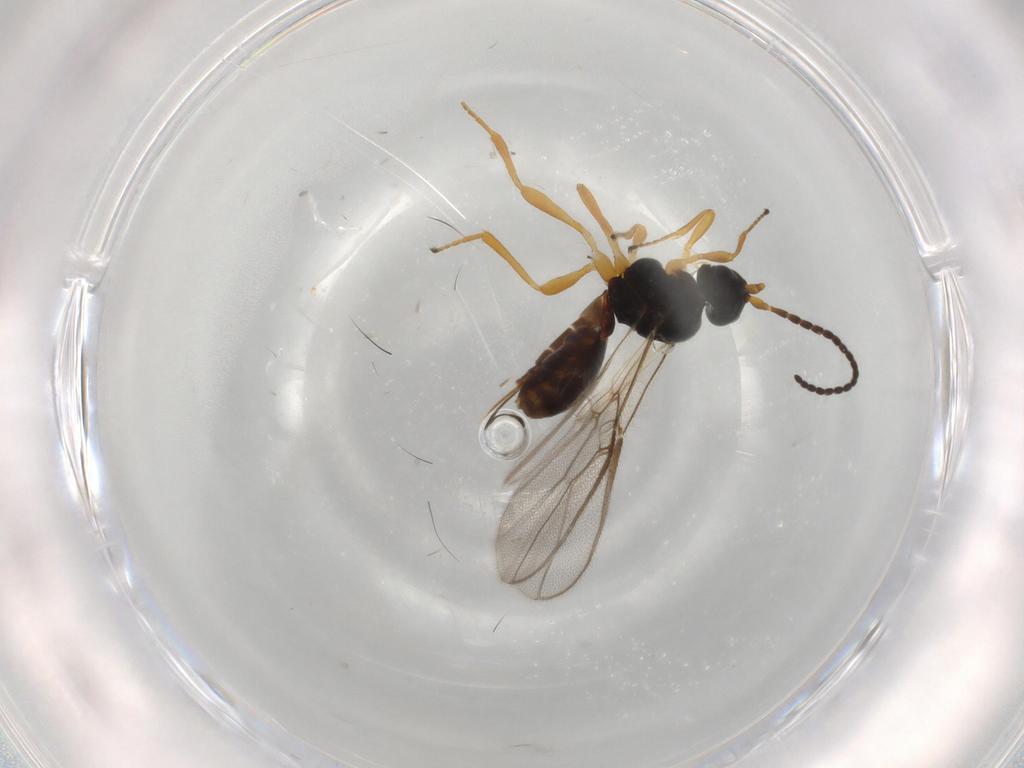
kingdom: Animalia
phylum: Arthropoda
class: Insecta
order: Hymenoptera
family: Braconidae
